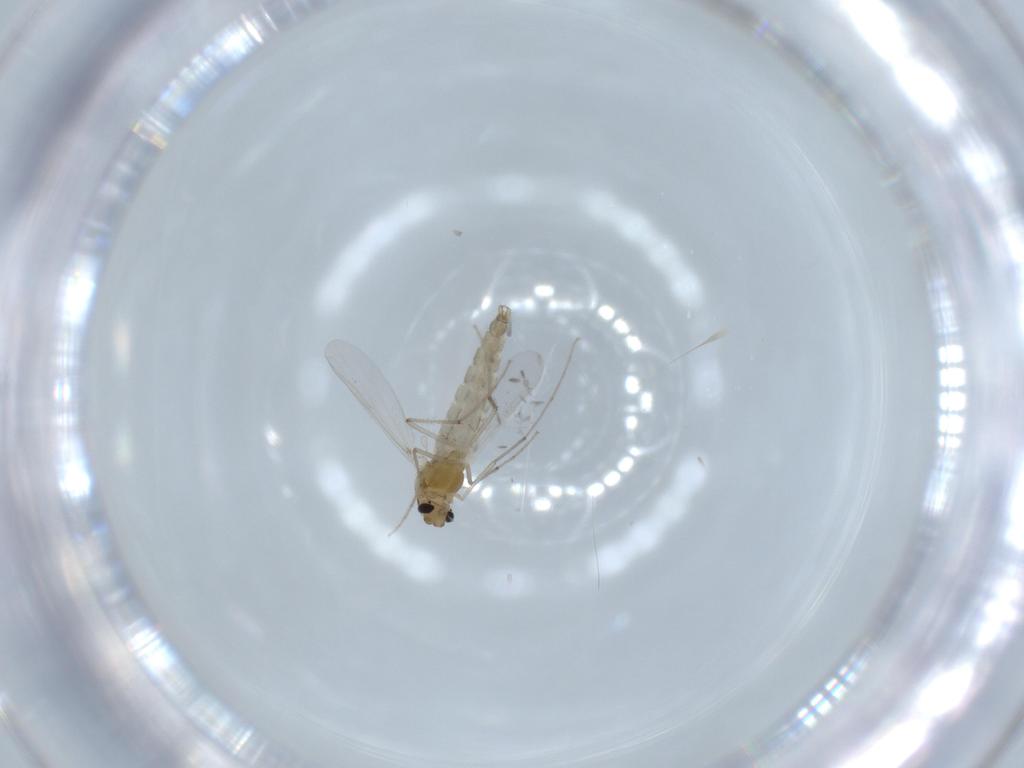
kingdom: Animalia
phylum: Arthropoda
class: Insecta
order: Diptera
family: Chironomidae
